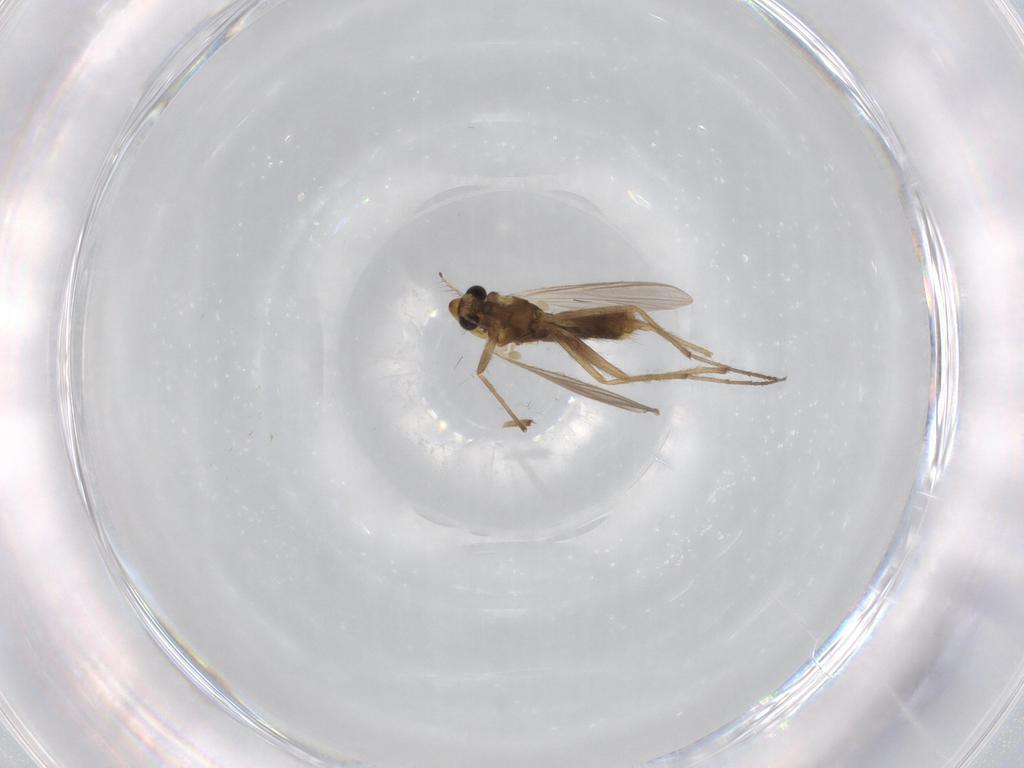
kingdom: Animalia
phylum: Arthropoda
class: Insecta
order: Diptera
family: Chironomidae
